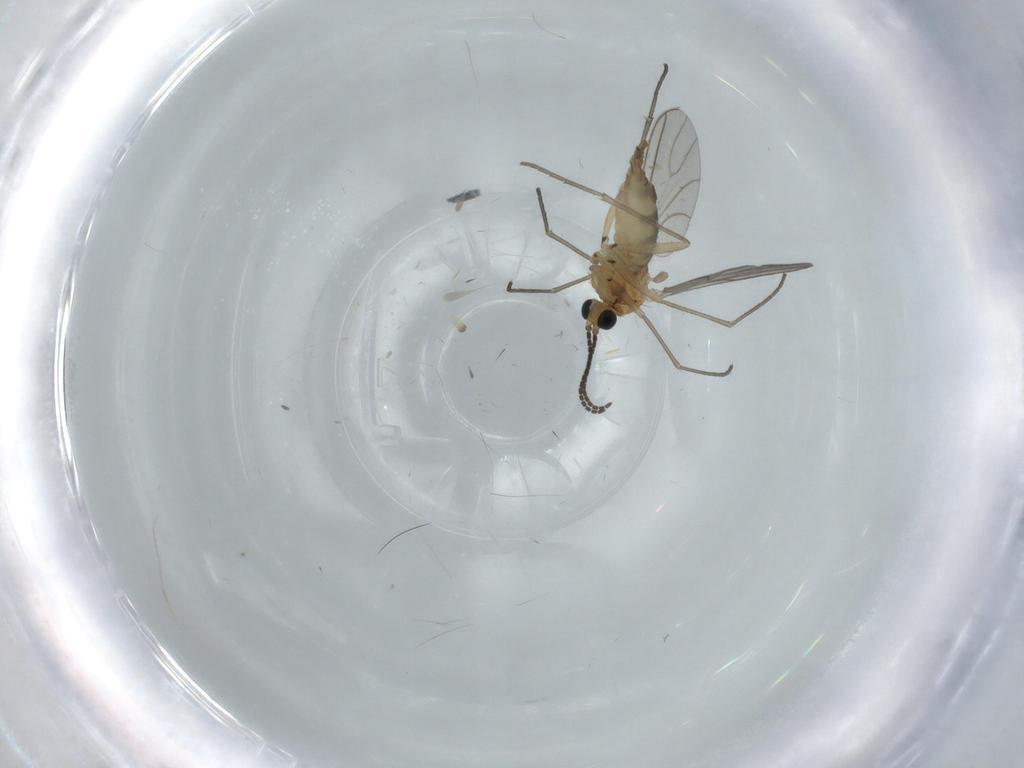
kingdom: Animalia
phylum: Arthropoda
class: Insecta
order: Diptera
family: Sciaridae
